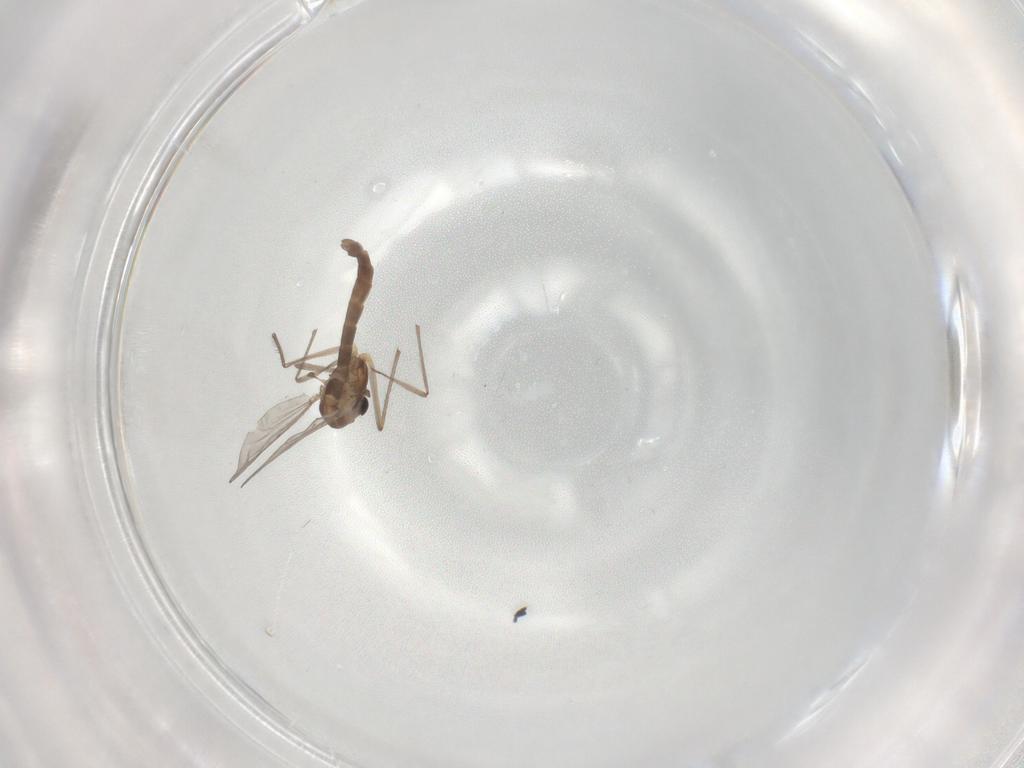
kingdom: Animalia
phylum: Arthropoda
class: Insecta
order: Diptera
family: Chironomidae
